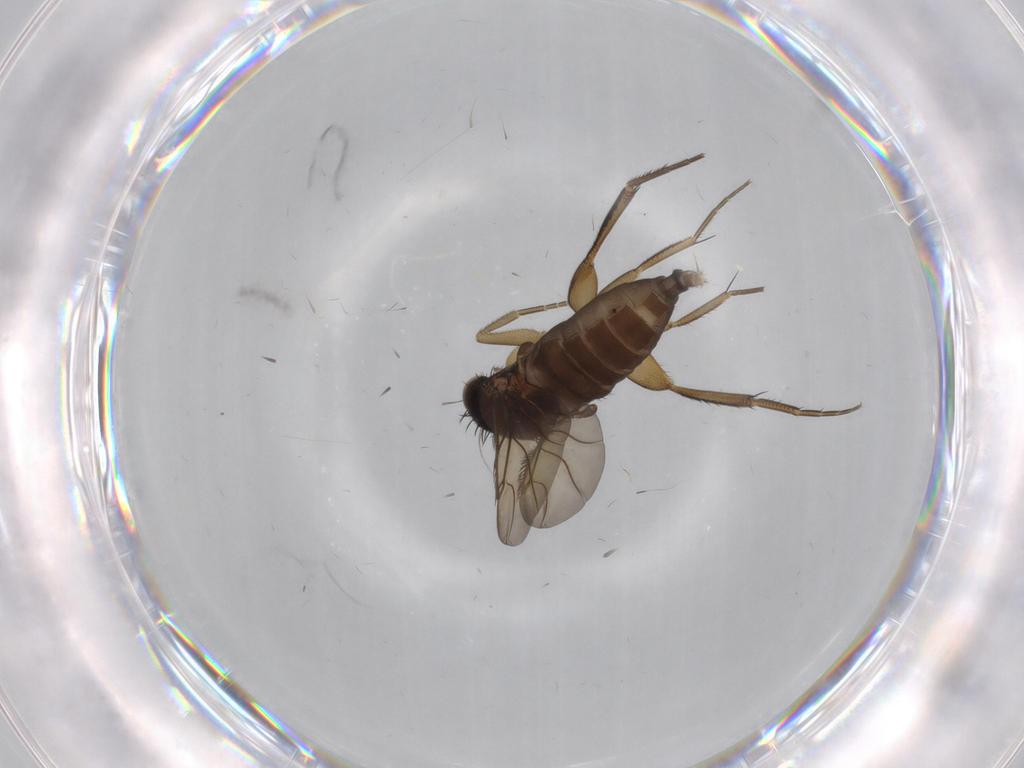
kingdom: Animalia
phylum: Arthropoda
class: Insecta
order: Diptera
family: Phoridae
